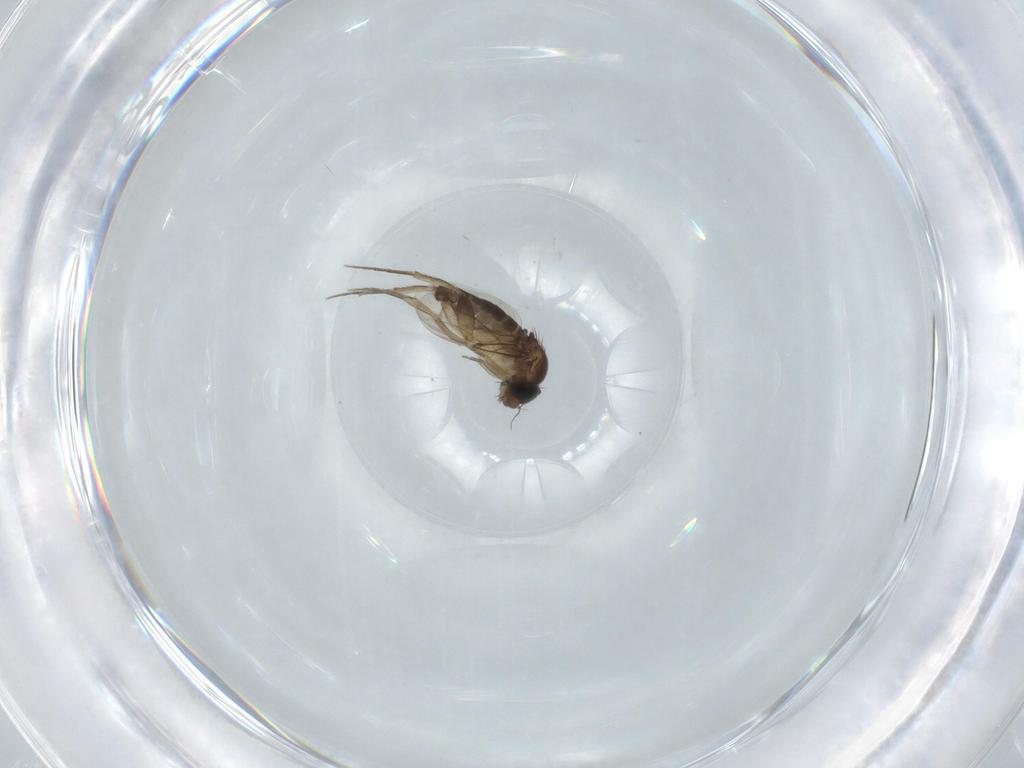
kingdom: Animalia
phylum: Arthropoda
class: Insecta
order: Diptera
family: Phoridae
